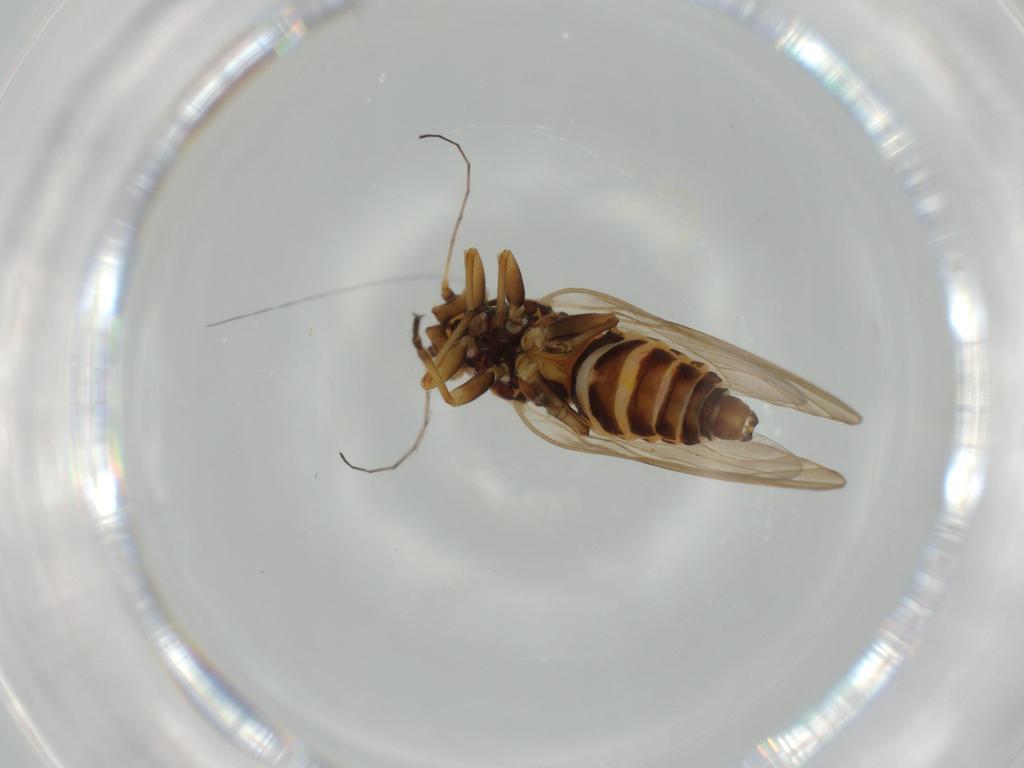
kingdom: Animalia
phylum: Arthropoda
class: Insecta
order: Hemiptera
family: Psyllidae
